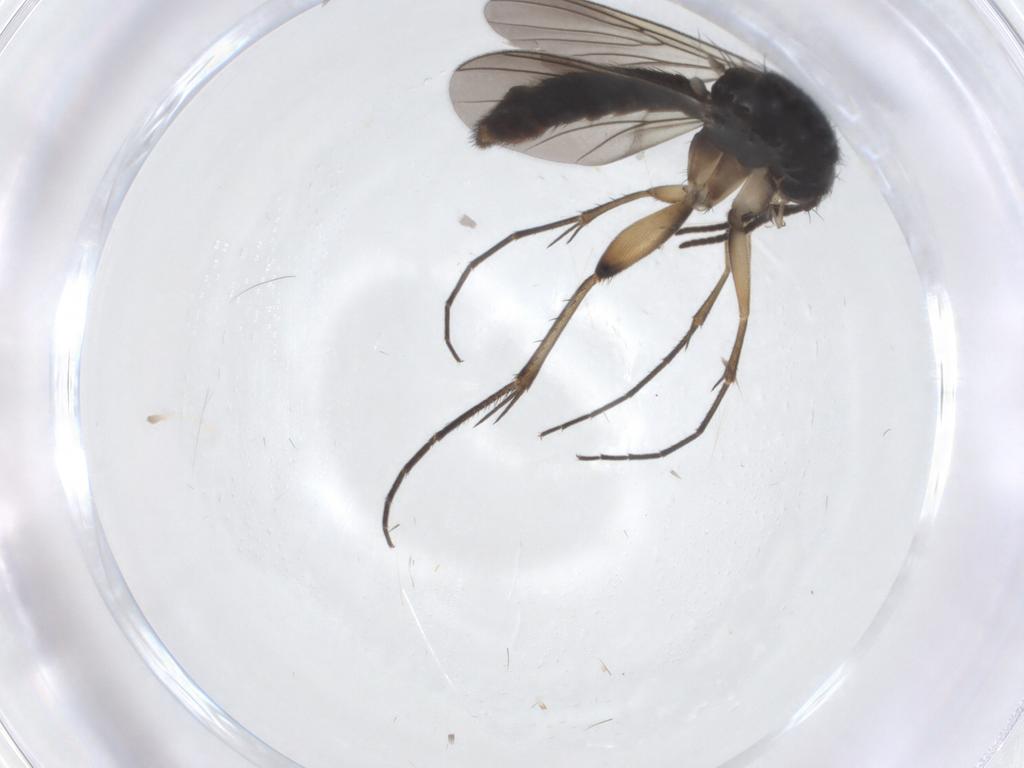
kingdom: Animalia
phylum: Arthropoda
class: Insecta
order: Diptera
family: Mycetophilidae
